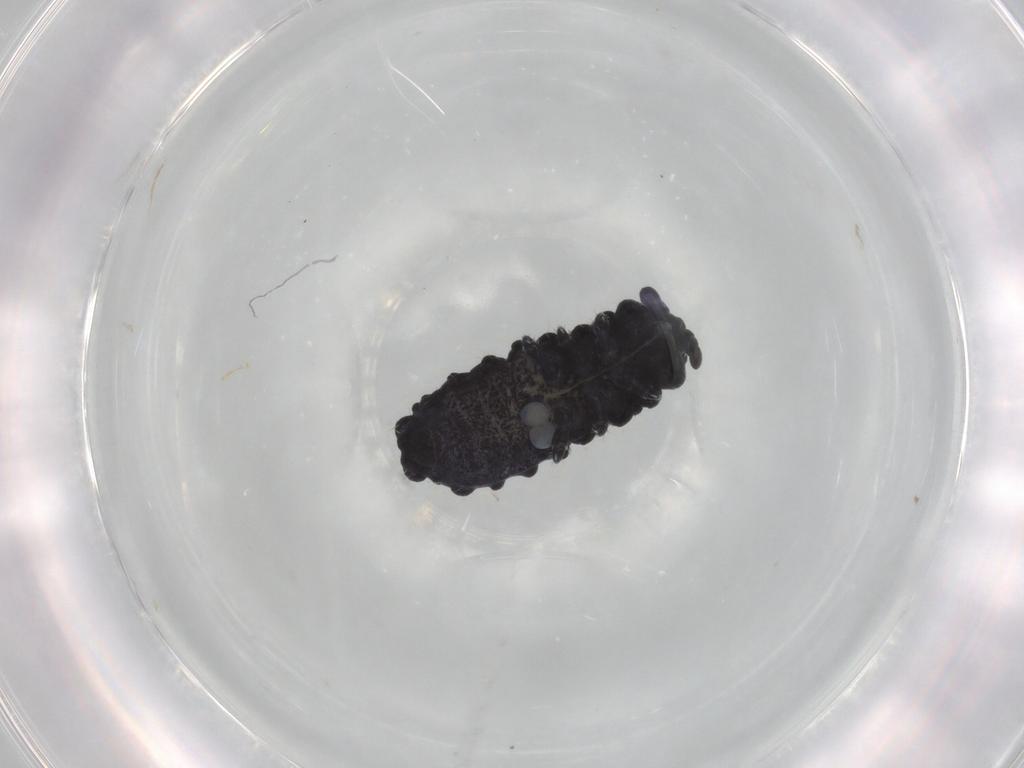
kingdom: Animalia
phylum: Arthropoda
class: Collembola
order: Poduromorpha
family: Neanuridae
